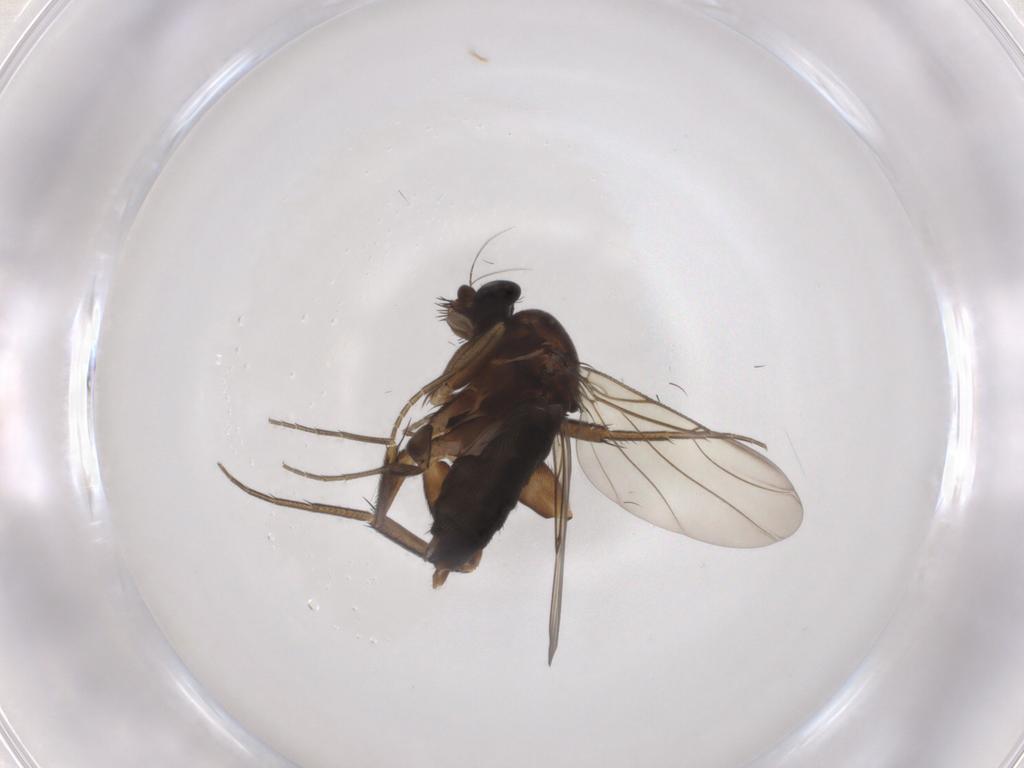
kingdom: Animalia
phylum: Arthropoda
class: Insecta
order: Diptera
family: Phoridae
